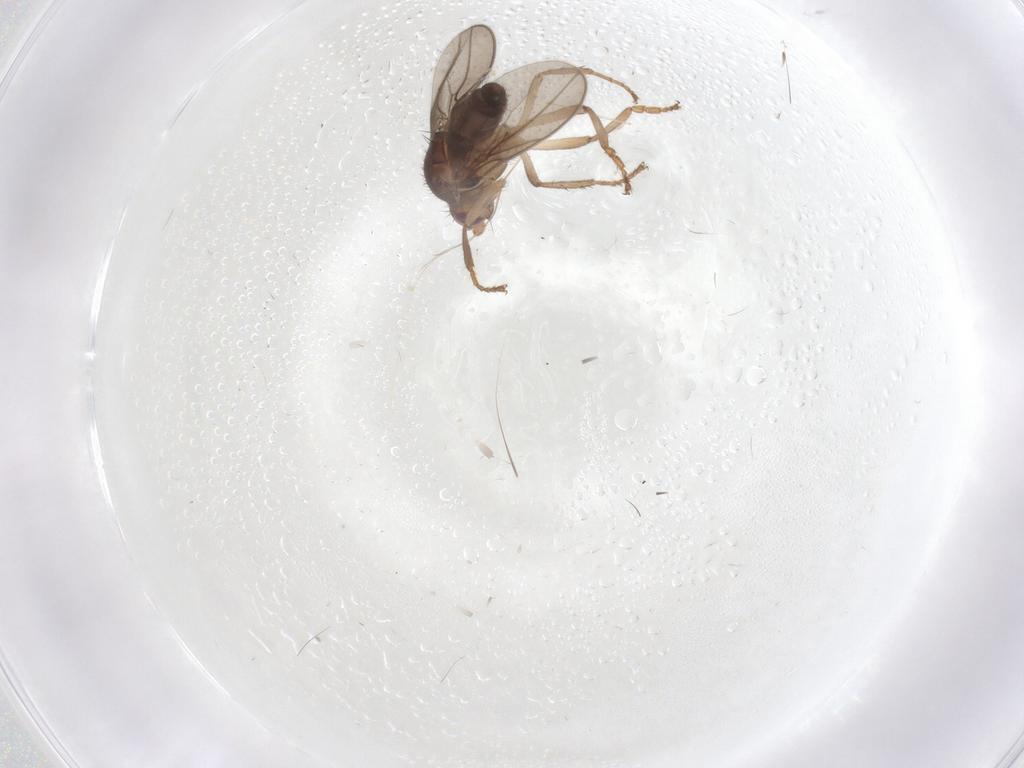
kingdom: Animalia
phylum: Arthropoda
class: Insecta
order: Diptera
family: Sphaeroceridae
